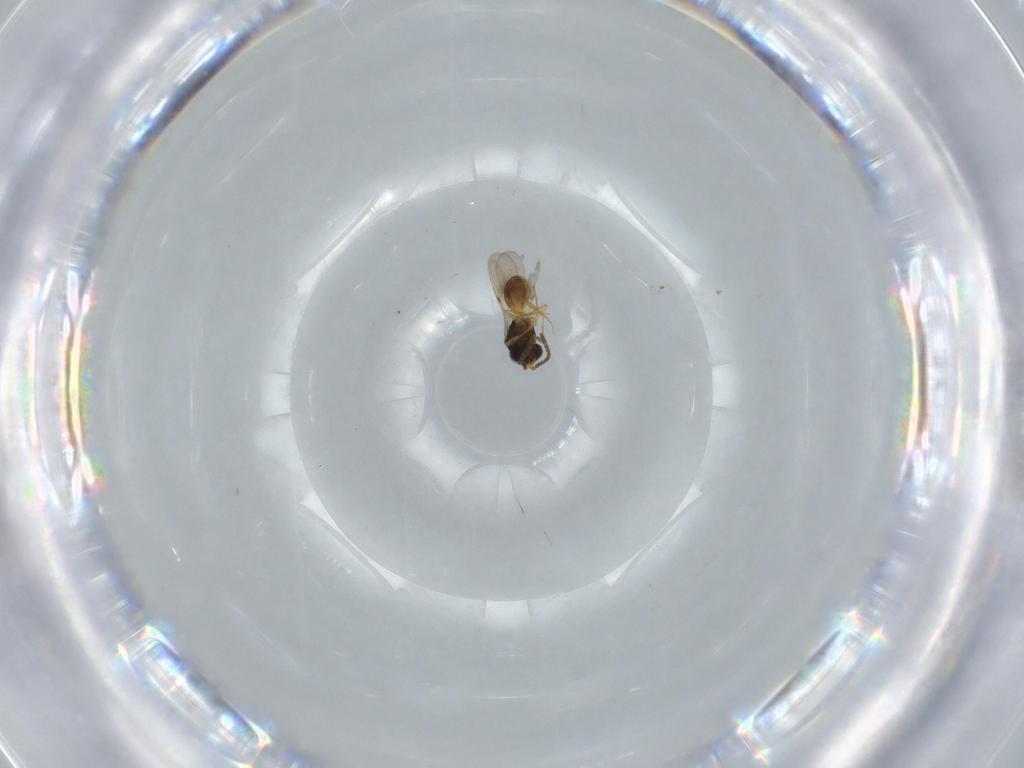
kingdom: Animalia
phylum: Arthropoda
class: Insecta
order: Hymenoptera
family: Scelionidae
